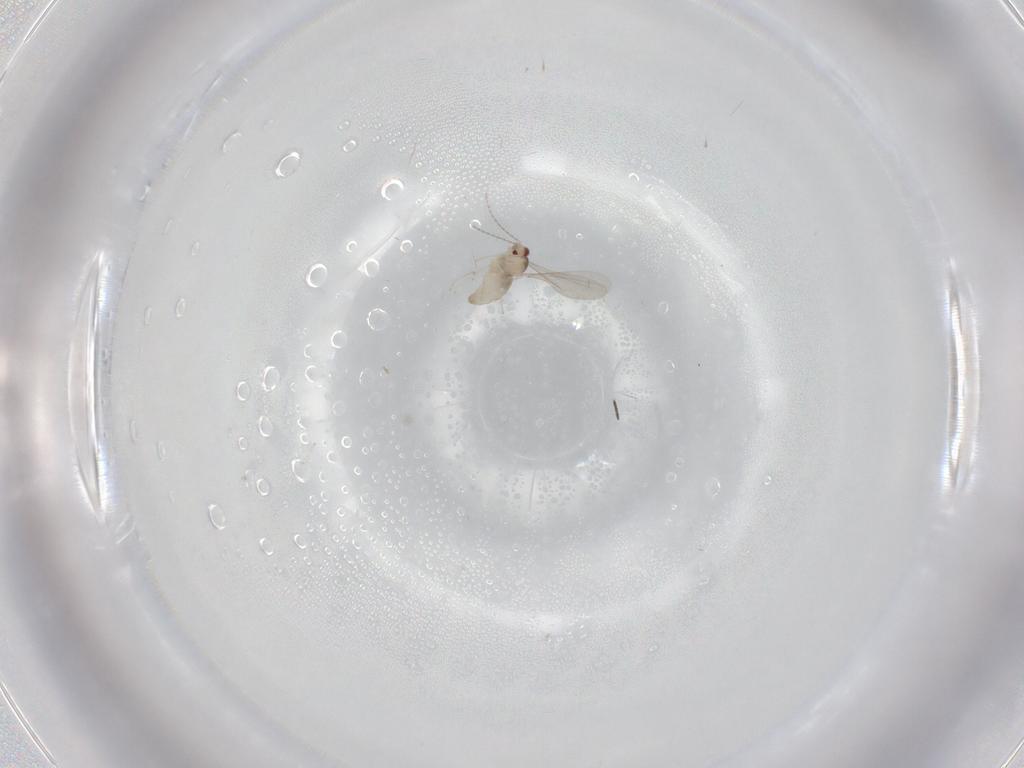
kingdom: Animalia
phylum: Arthropoda
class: Insecta
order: Diptera
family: Cecidomyiidae
